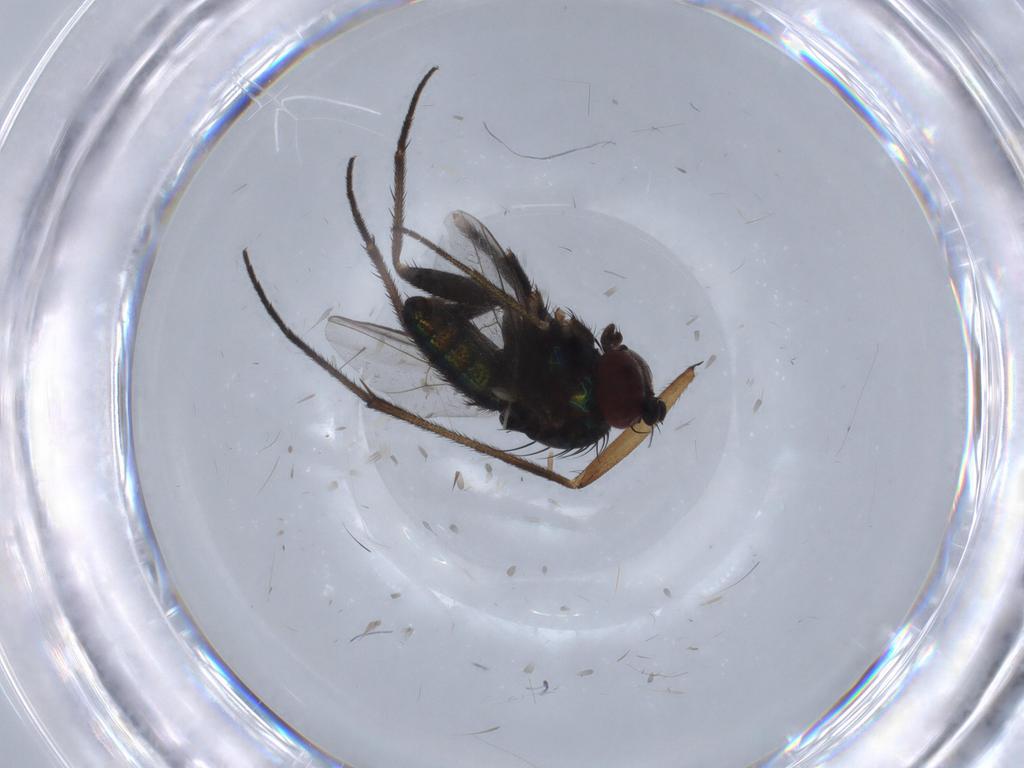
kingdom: Animalia
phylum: Arthropoda
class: Insecta
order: Diptera
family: Dolichopodidae
